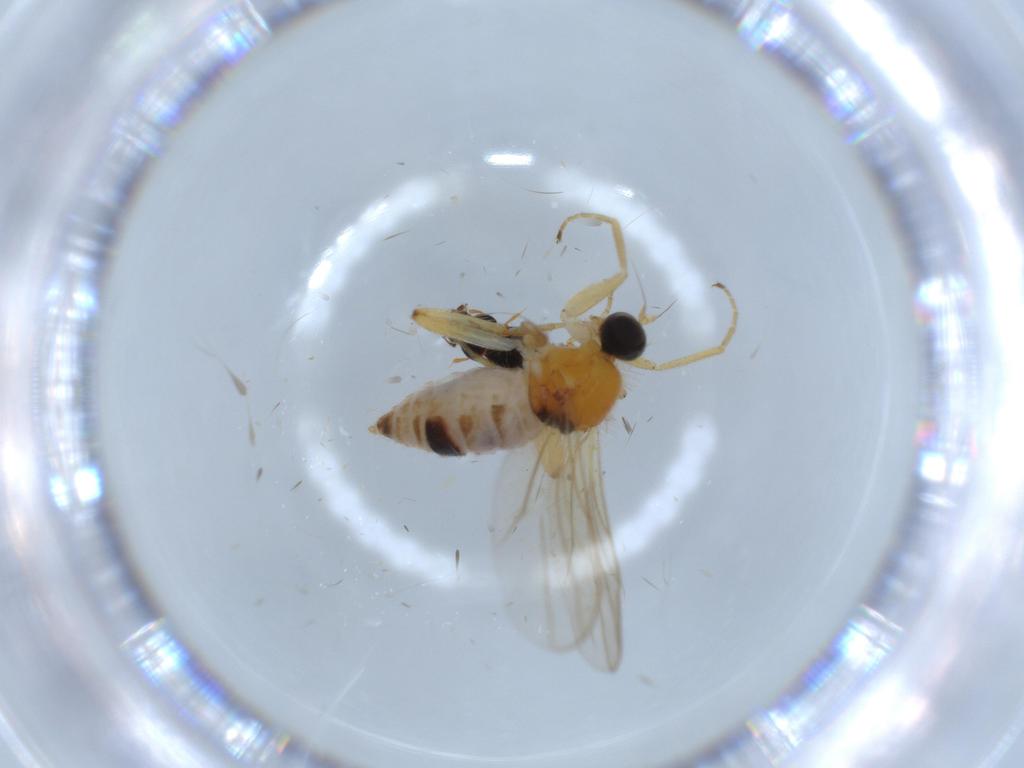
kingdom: Animalia
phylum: Arthropoda
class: Insecta
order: Diptera
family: Hybotidae
